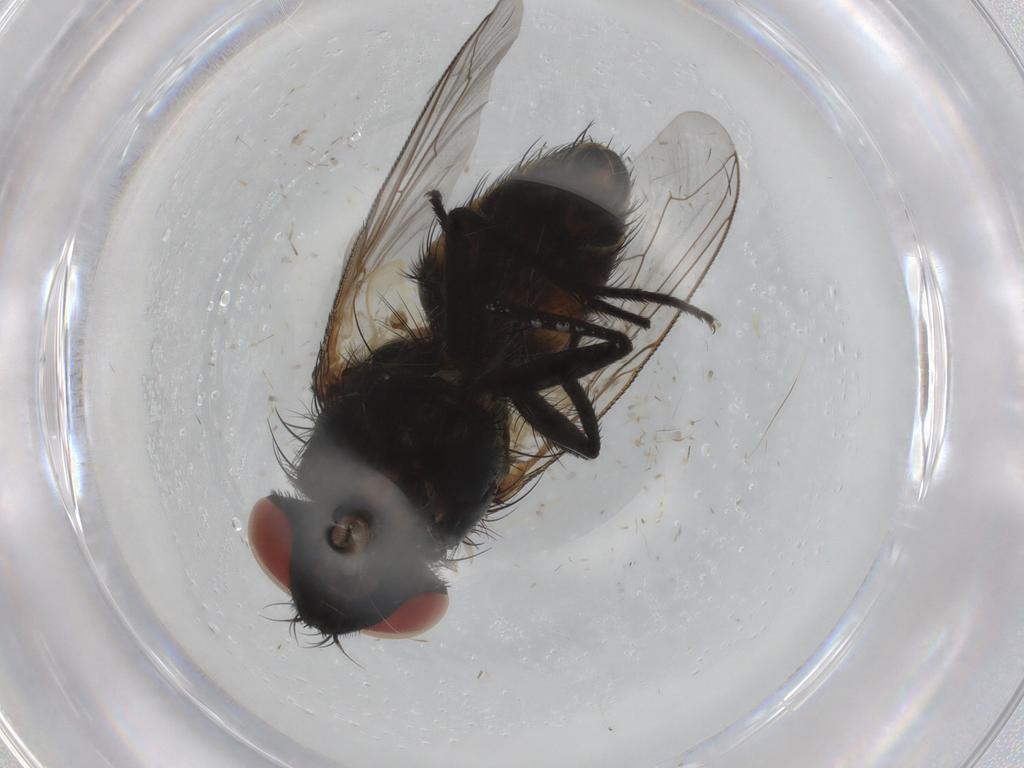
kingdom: Animalia
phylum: Arthropoda
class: Insecta
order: Diptera
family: Sarcophagidae
